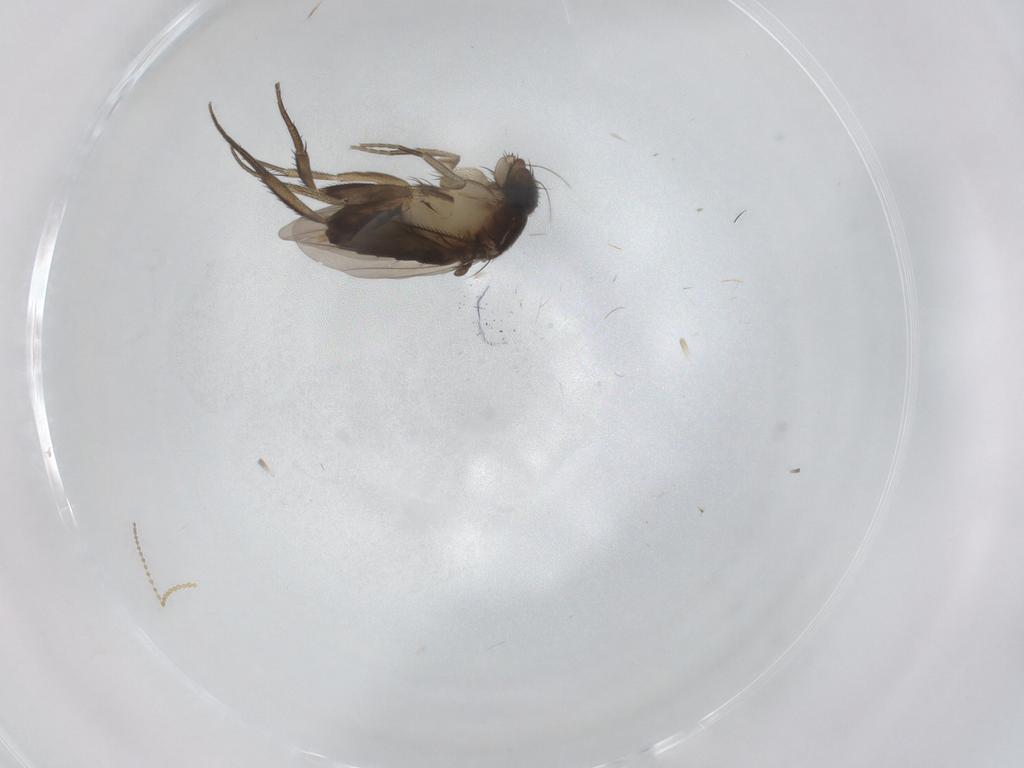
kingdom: Animalia
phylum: Arthropoda
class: Insecta
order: Diptera
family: Phoridae
